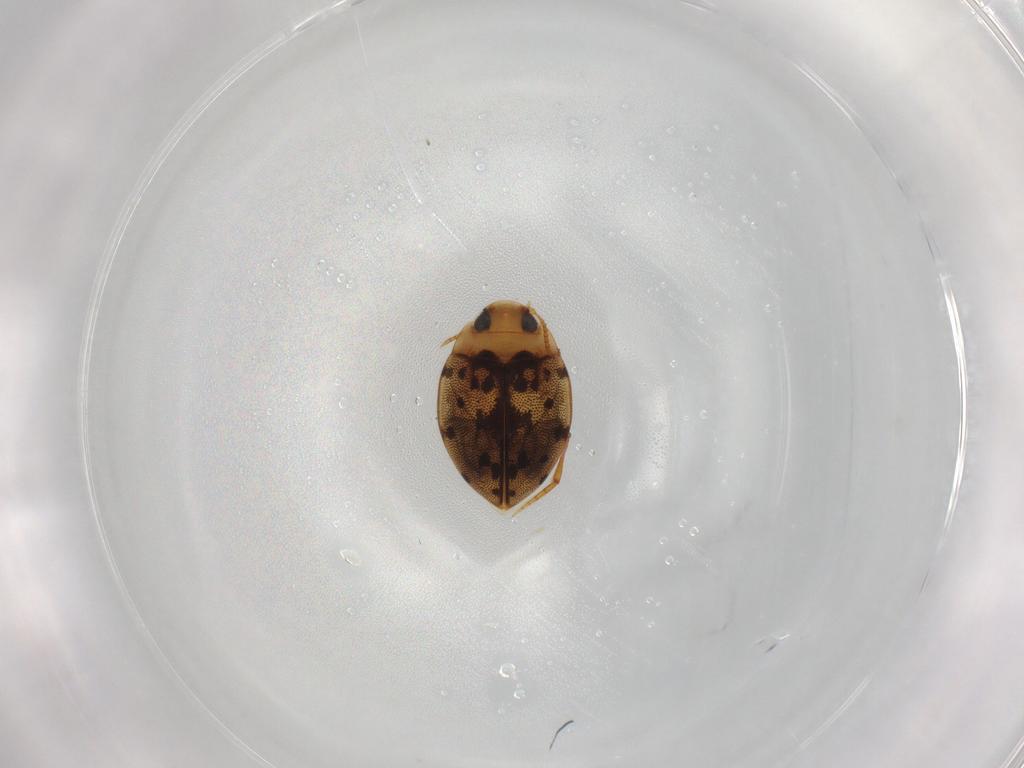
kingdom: Animalia
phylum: Arthropoda
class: Insecta
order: Coleoptera
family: Dytiscidae
